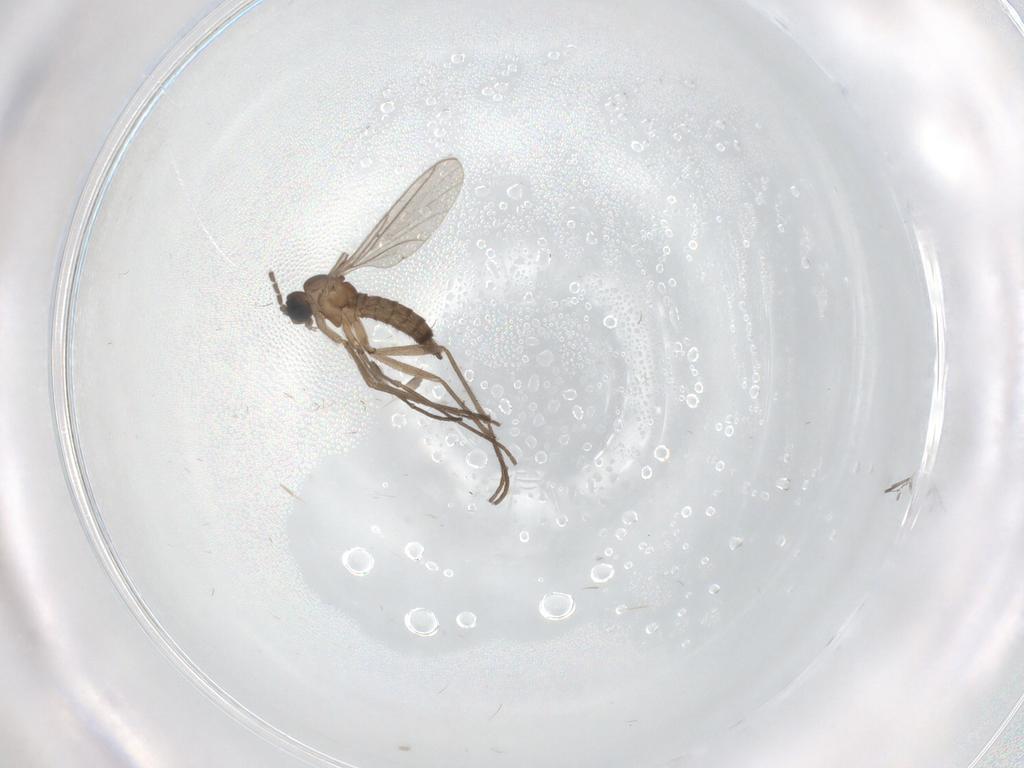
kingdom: Animalia
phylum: Arthropoda
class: Insecta
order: Diptera
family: Sciaridae
